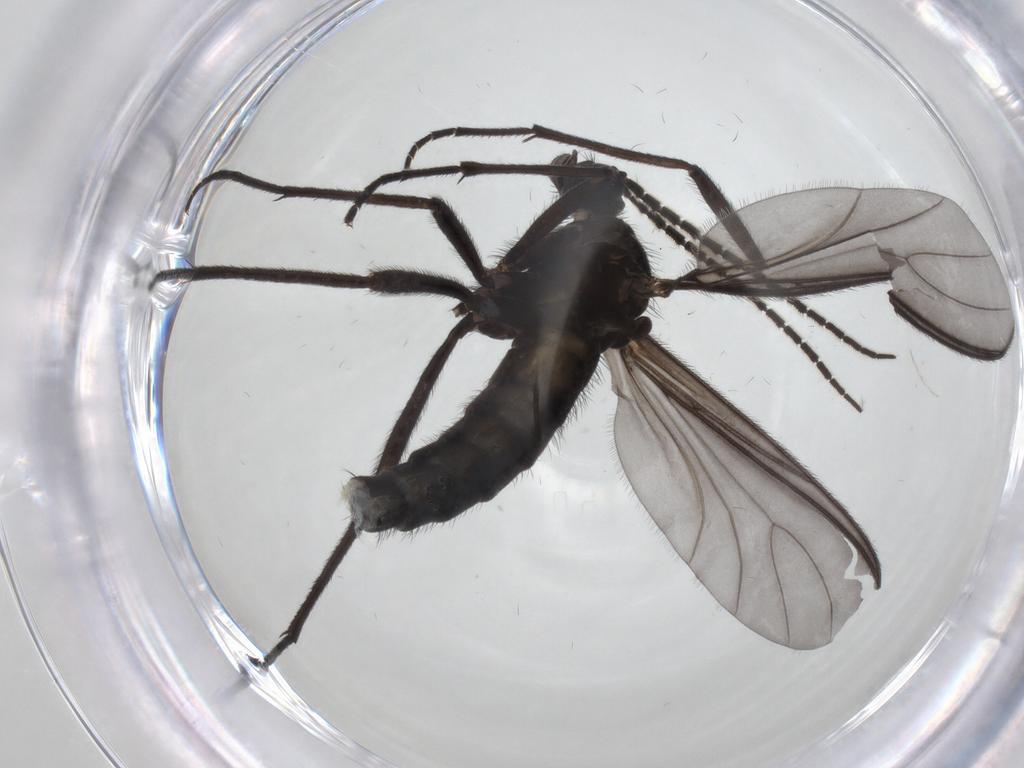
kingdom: Animalia
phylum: Arthropoda
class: Insecta
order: Diptera
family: Sciaridae
